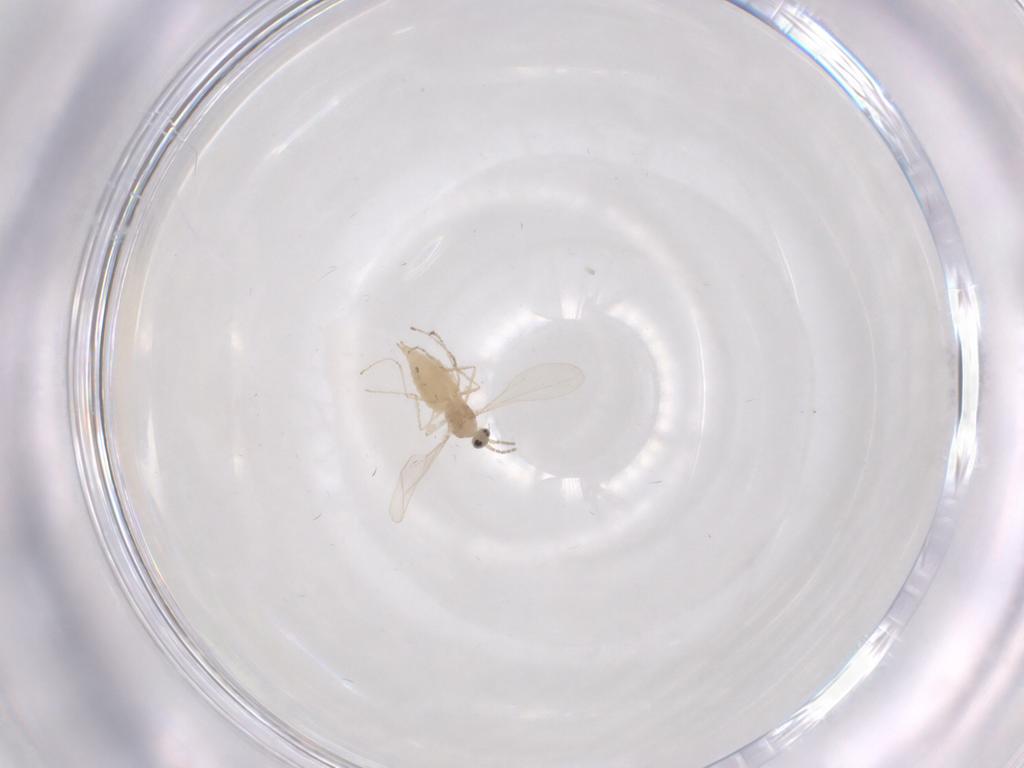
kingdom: Animalia
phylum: Arthropoda
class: Insecta
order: Diptera
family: Cecidomyiidae
